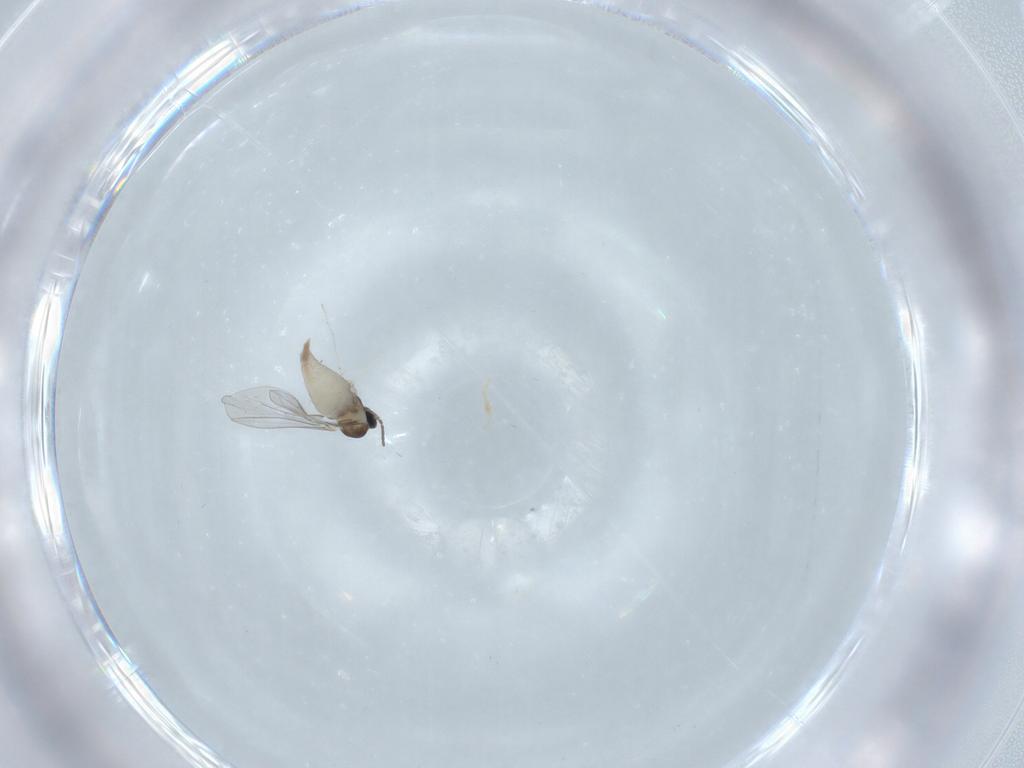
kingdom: Animalia
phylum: Arthropoda
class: Insecta
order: Diptera
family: Cecidomyiidae
